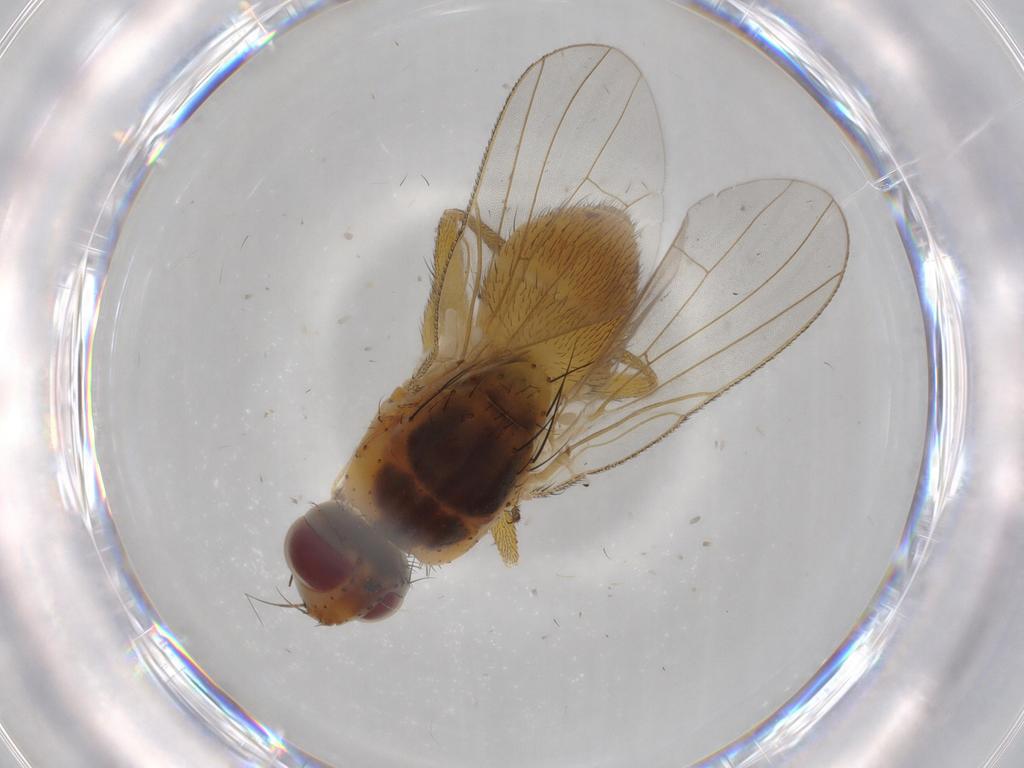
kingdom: Animalia
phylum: Arthropoda
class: Insecta
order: Diptera
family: Muscidae
